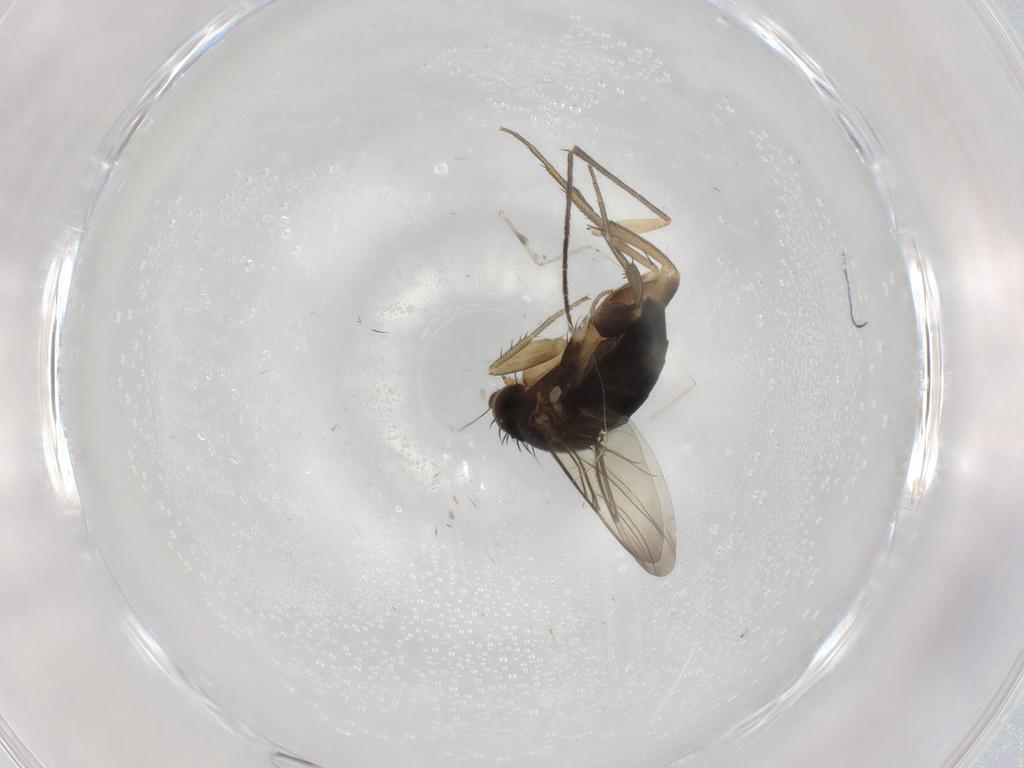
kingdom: Animalia
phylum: Arthropoda
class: Insecta
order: Diptera
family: Phoridae
